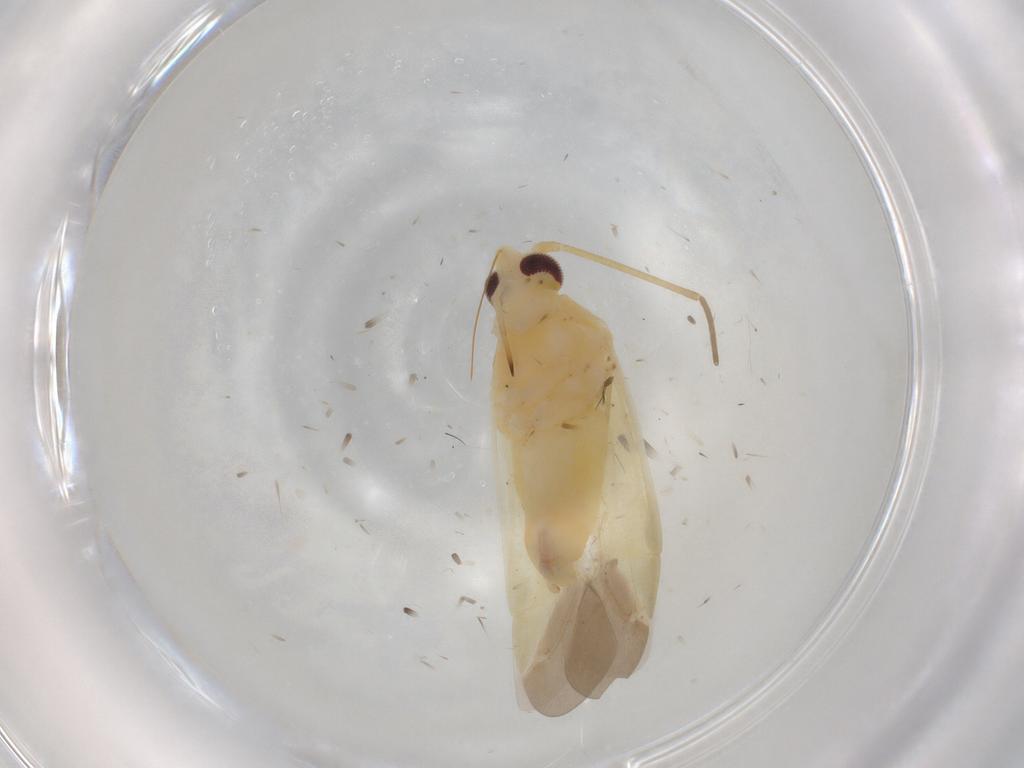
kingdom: Animalia
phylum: Arthropoda
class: Insecta
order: Hemiptera
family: Miridae
